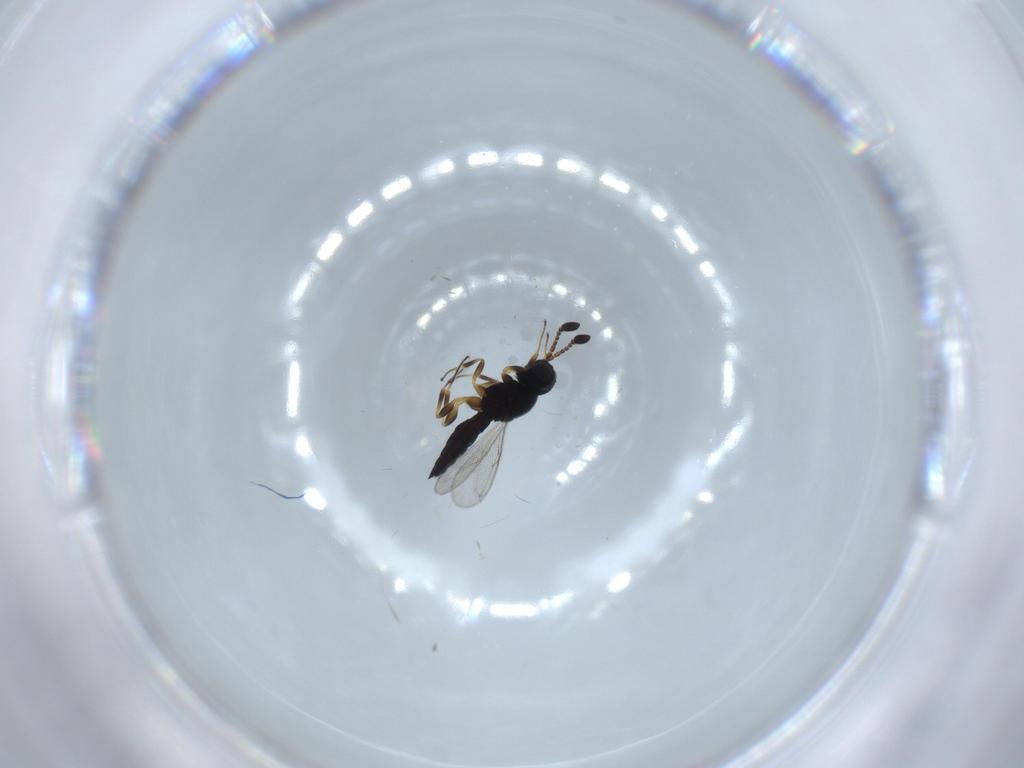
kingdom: Animalia
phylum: Arthropoda
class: Insecta
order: Hymenoptera
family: Scelionidae
